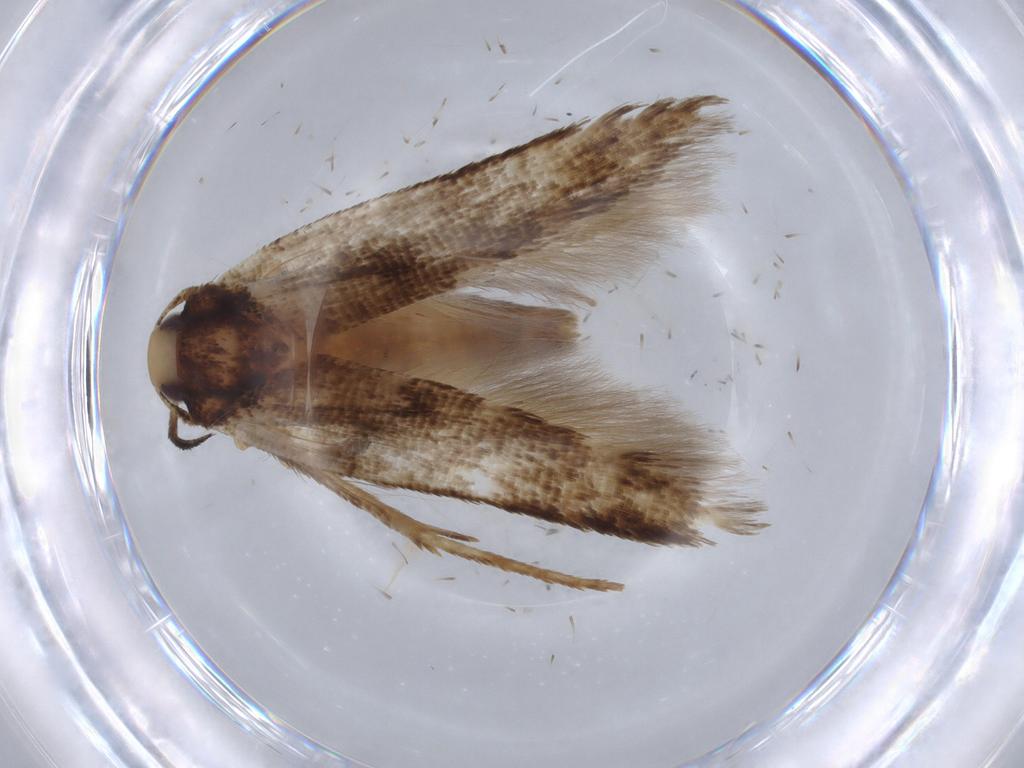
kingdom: Animalia
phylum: Arthropoda
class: Insecta
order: Lepidoptera
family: Crambidae
